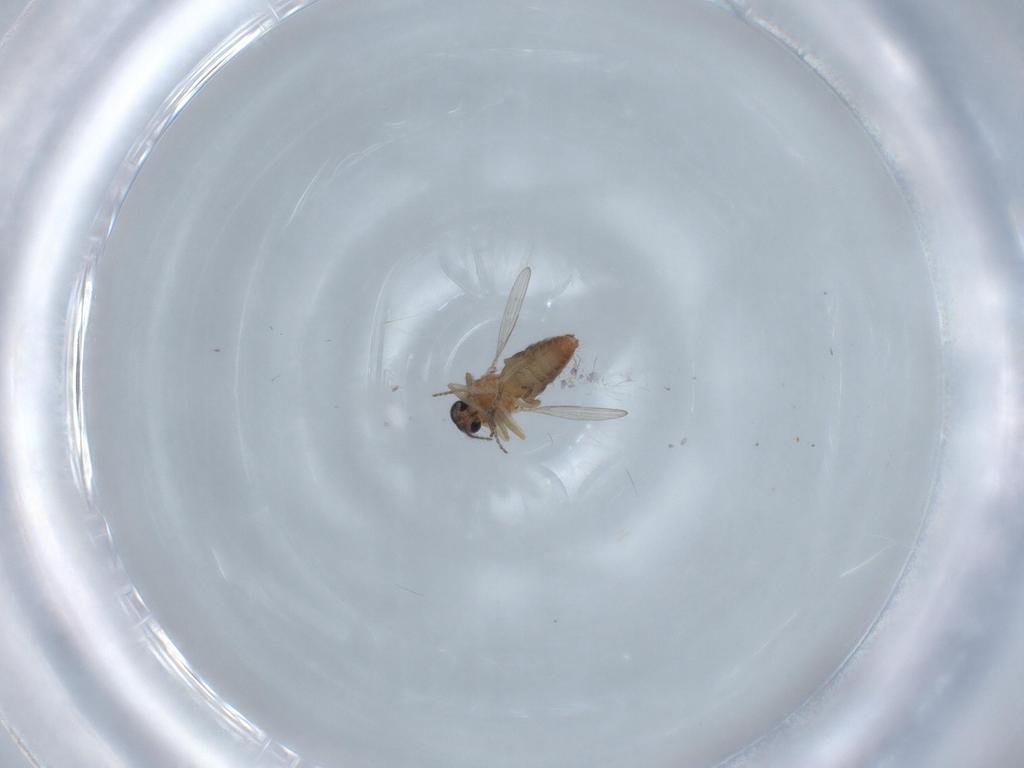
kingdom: Animalia
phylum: Arthropoda
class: Insecta
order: Diptera
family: Ceratopogonidae
